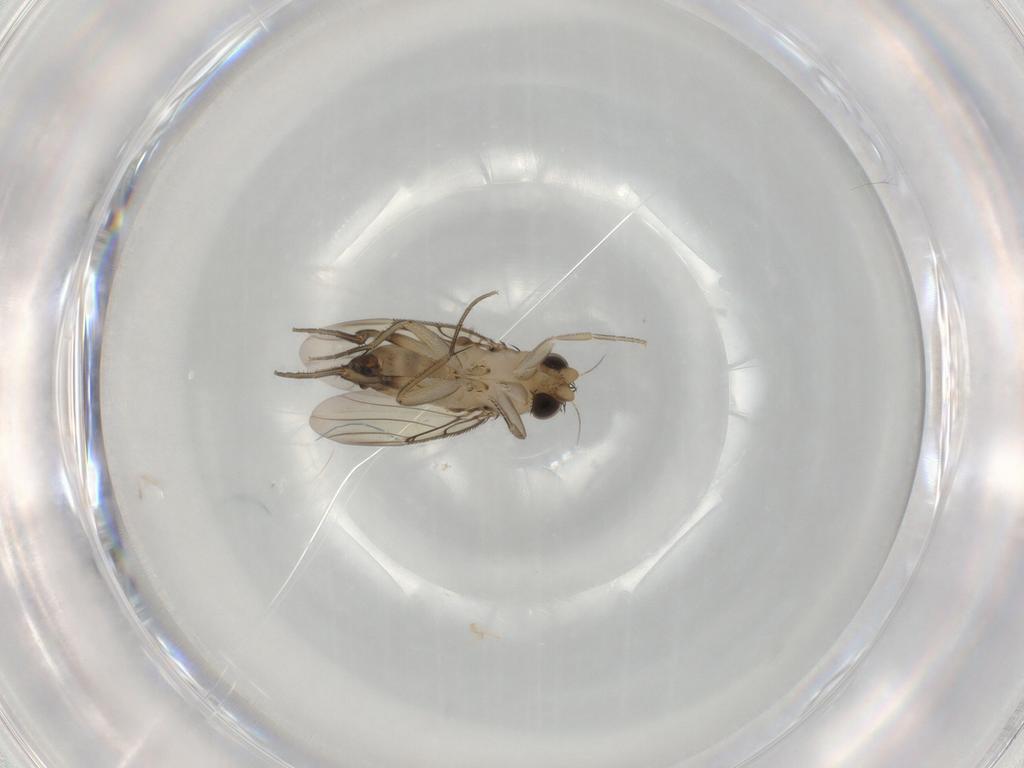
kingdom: Animalia
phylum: Arthropoda
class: Insecta
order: Diptera
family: Phoridae
